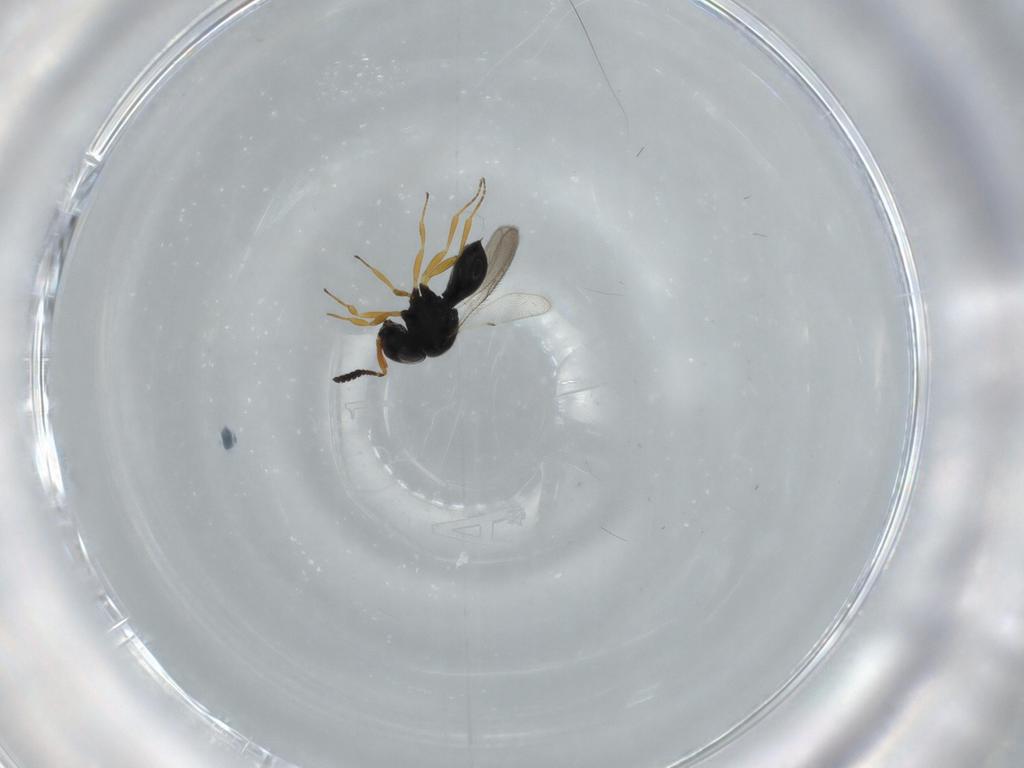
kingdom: Animalia
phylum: Arthropoda
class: Insecta
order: Hymenoptera
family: Scelionidae
